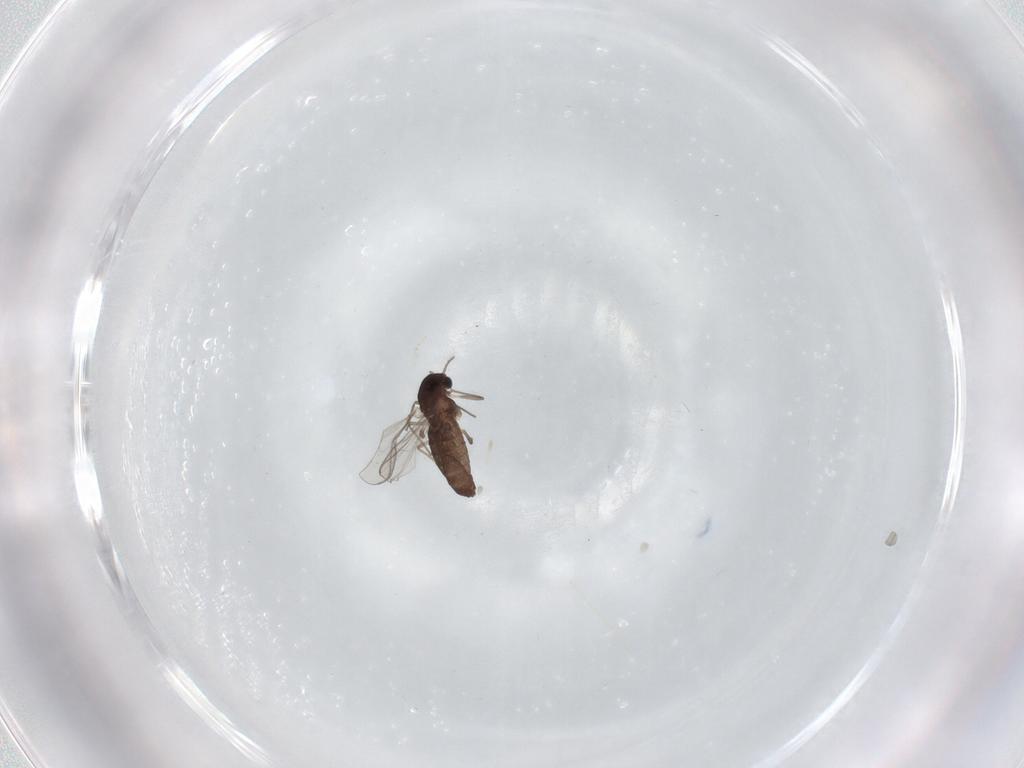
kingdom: Animalia
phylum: Arthropoda
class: Insecta
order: Diptera
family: Chironomidae
